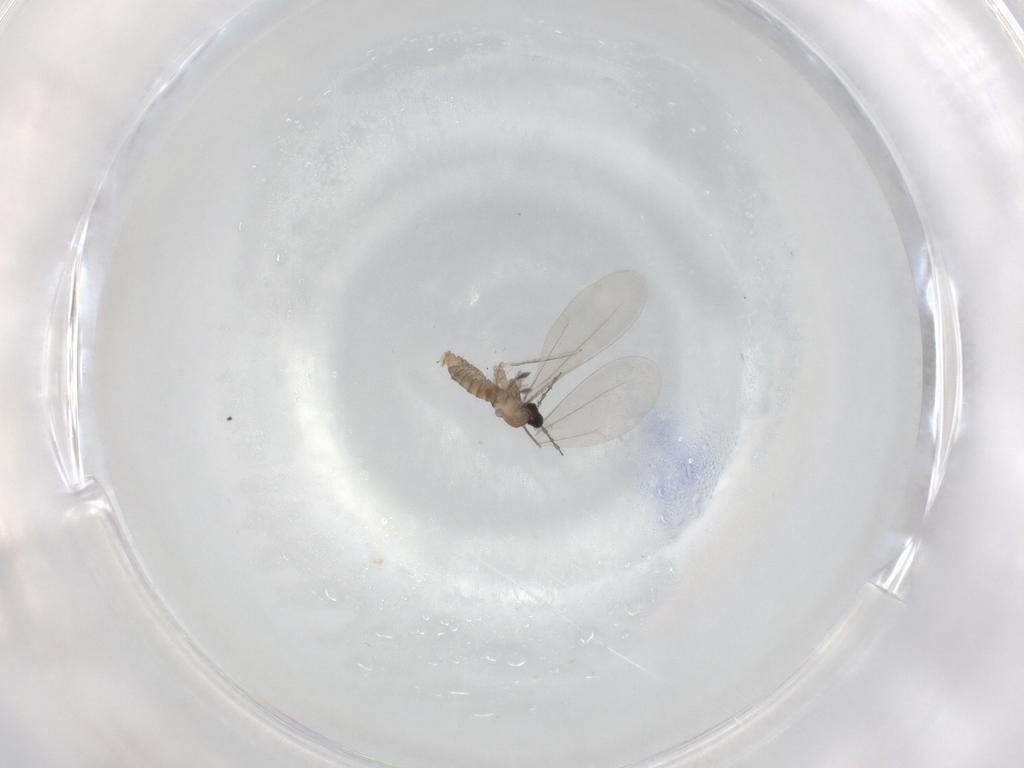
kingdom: Animalia
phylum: Arthropoda
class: Insecta
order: Diptera
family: Cecidomyiidae
